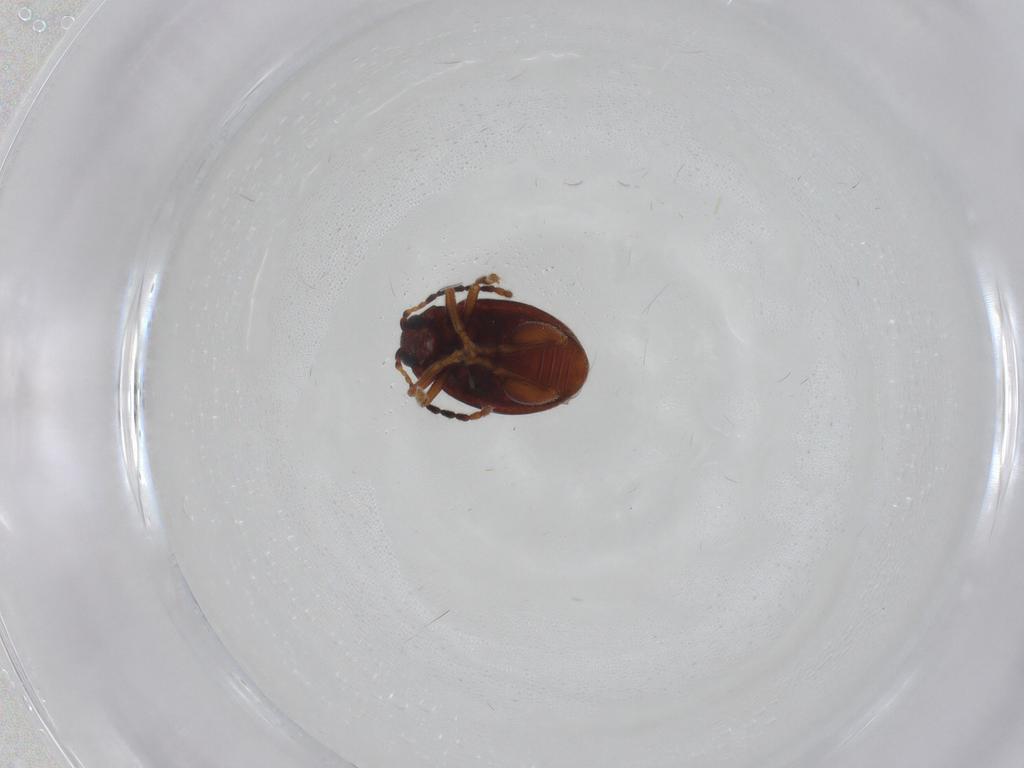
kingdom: Animalia
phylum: Arthropoda
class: Insecta
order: Coleoptera
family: Chrysomelidae
